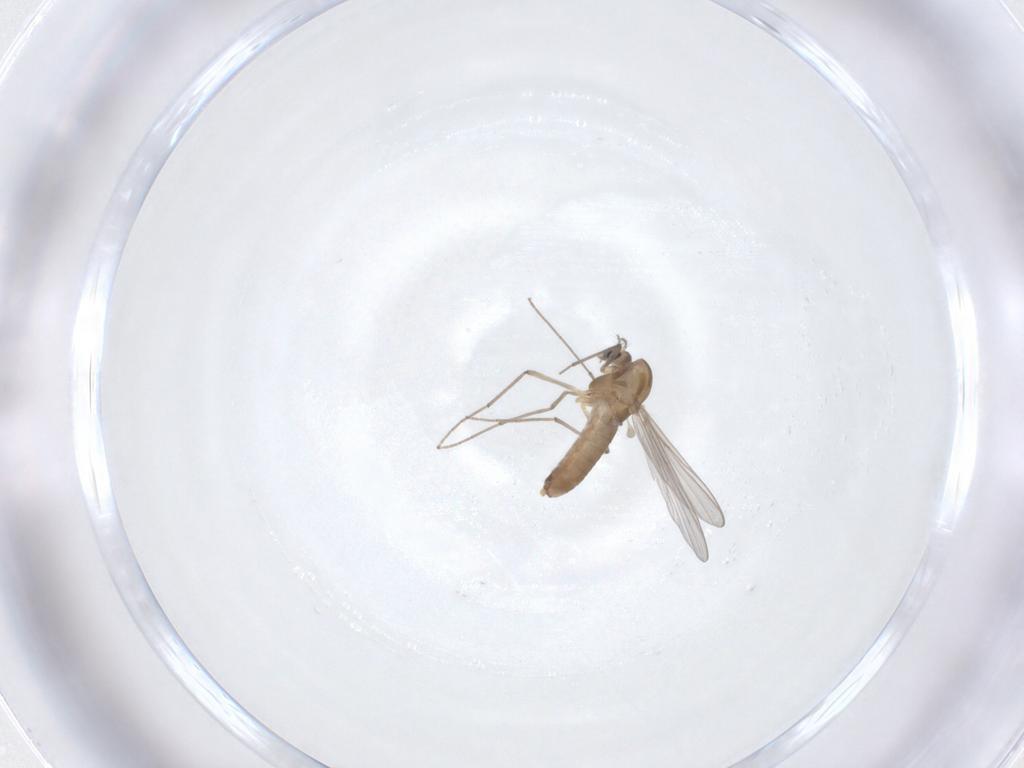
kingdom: Animalia
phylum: Arthropoda
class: Insecta
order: Diptera
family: Chironomidae
